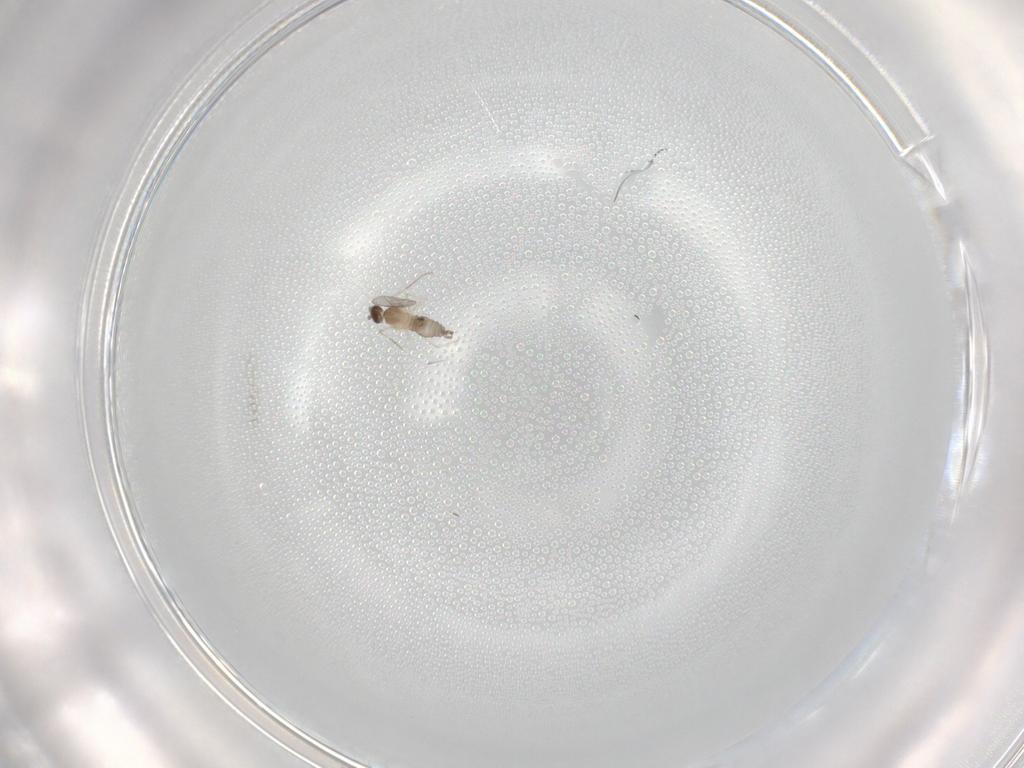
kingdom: Animalia
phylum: Arthropoda
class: Insecta
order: Diptera
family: Cecidomyiidae
